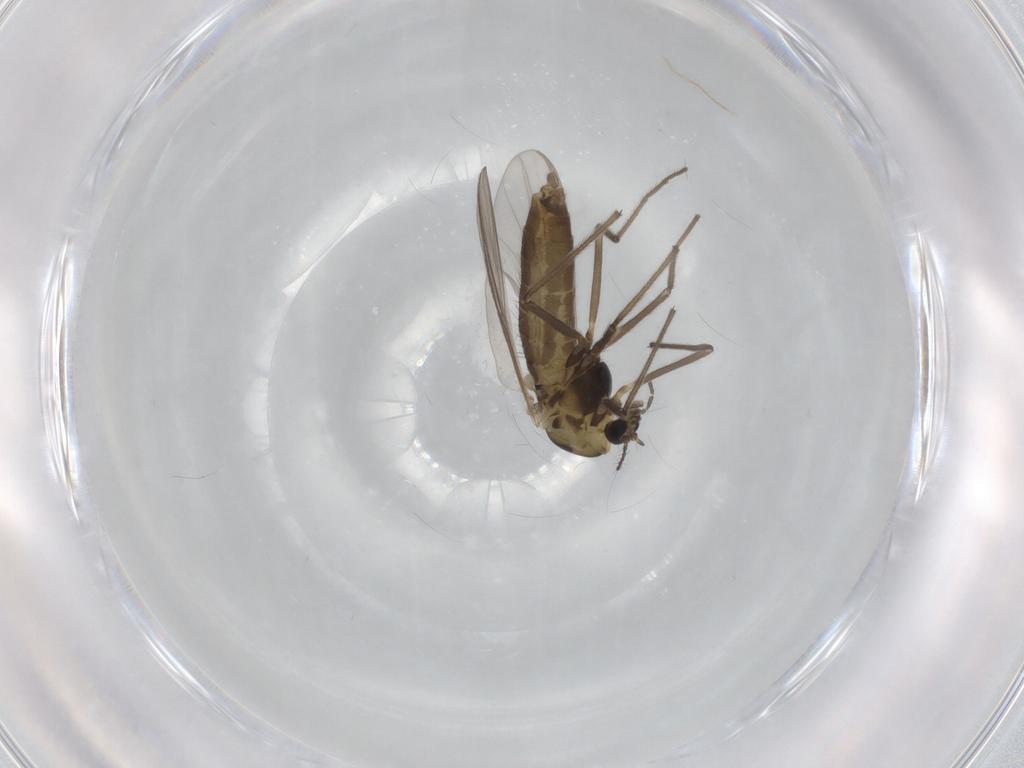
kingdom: Animalia
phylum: Arthropoda
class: Insecta
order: Diptera
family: Chironomidae
